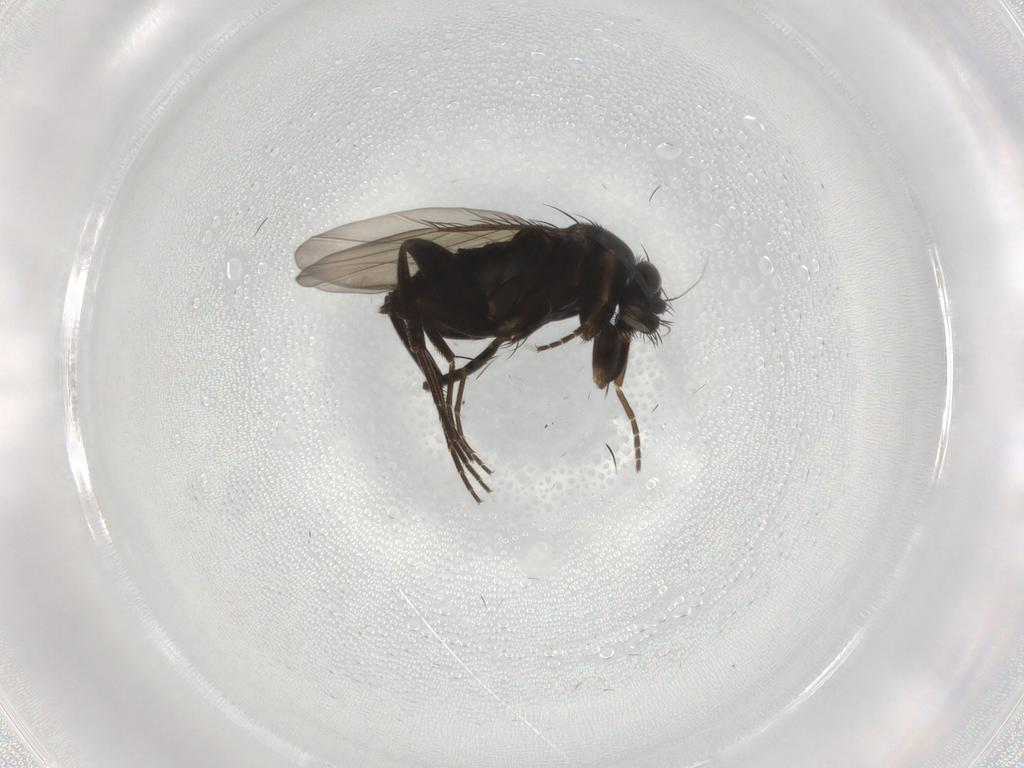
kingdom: Animalia
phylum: Arthropoda
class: Insecta
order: Diptera
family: Phoridae
